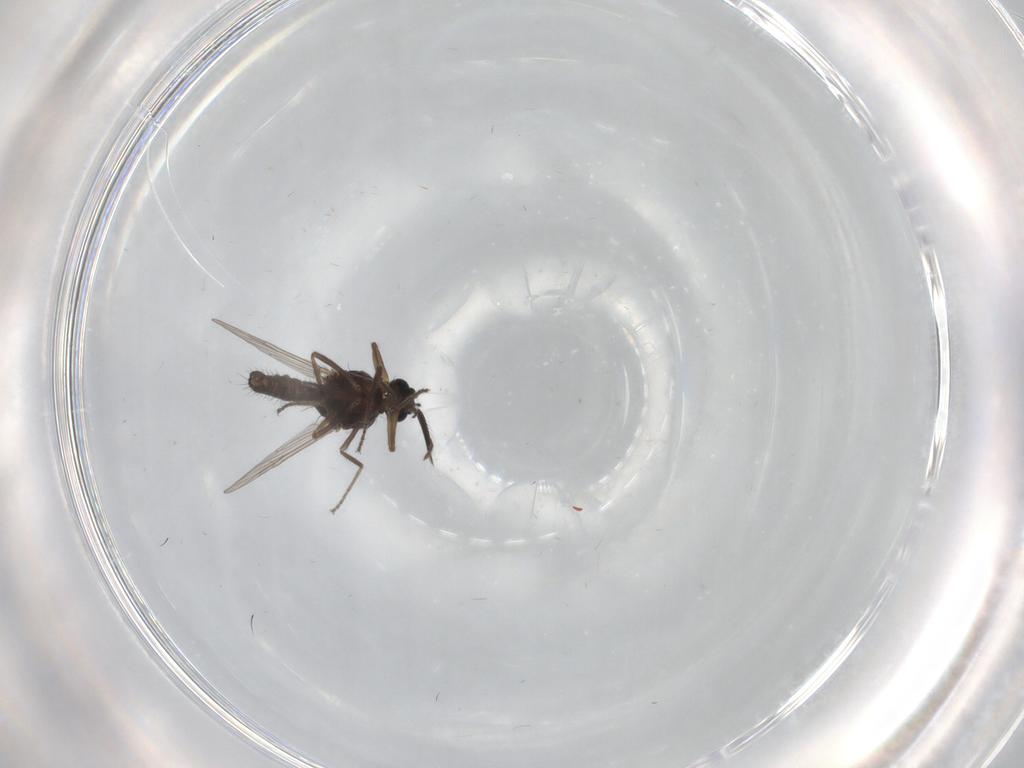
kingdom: Animalia
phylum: Arthropoda
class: Insecta
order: Diptera
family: Ceratopogonidae
